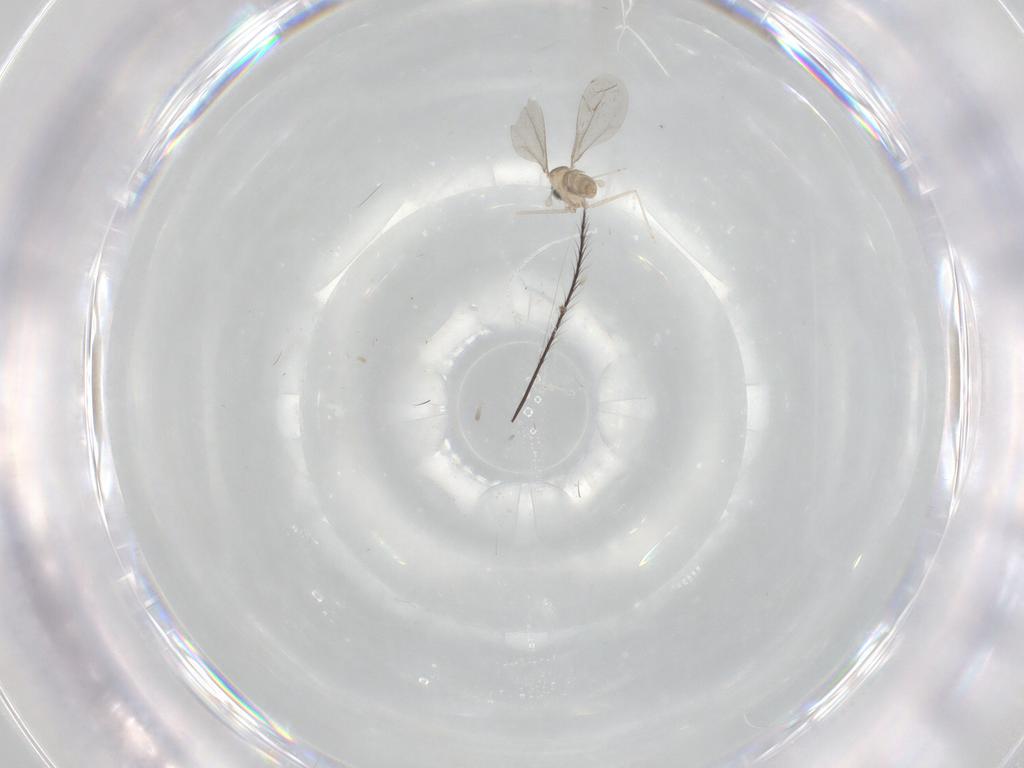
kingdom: Animalia
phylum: Arthropoda
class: Insecta
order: Diptera
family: Cecidomyiidae
